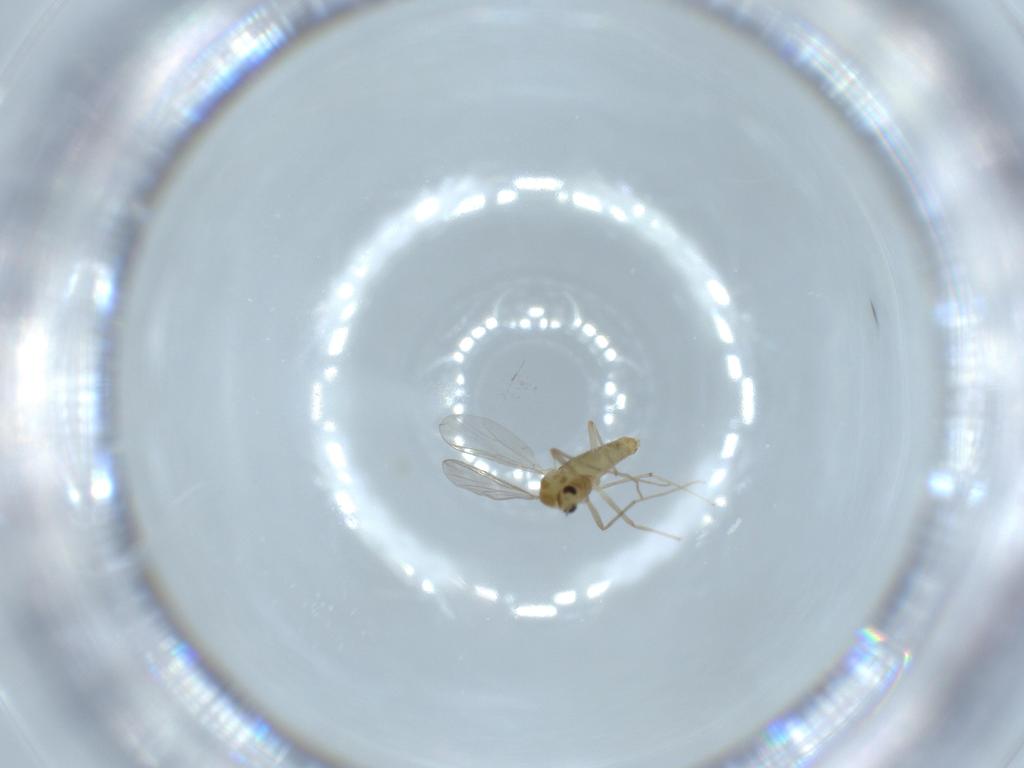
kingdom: Animalia
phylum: Arthropoda
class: Insecta
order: Diptera
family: Chironomidae
